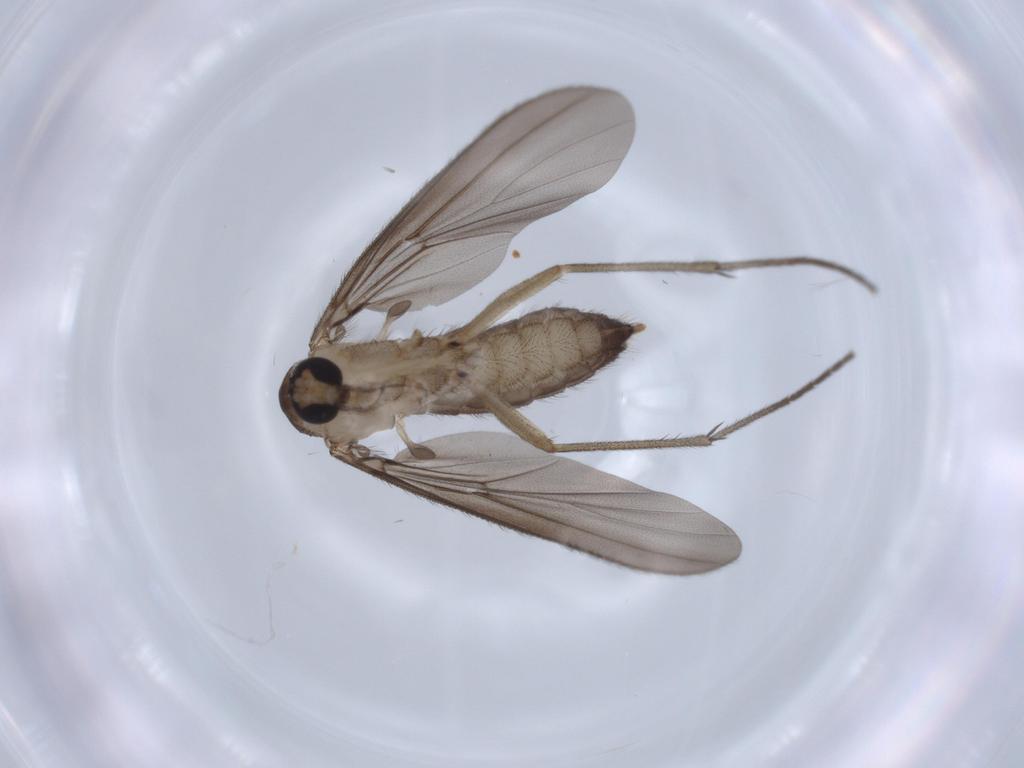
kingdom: Animalia
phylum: Arthropoda
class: Insecta
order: Diptera
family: Diadocidiidae
